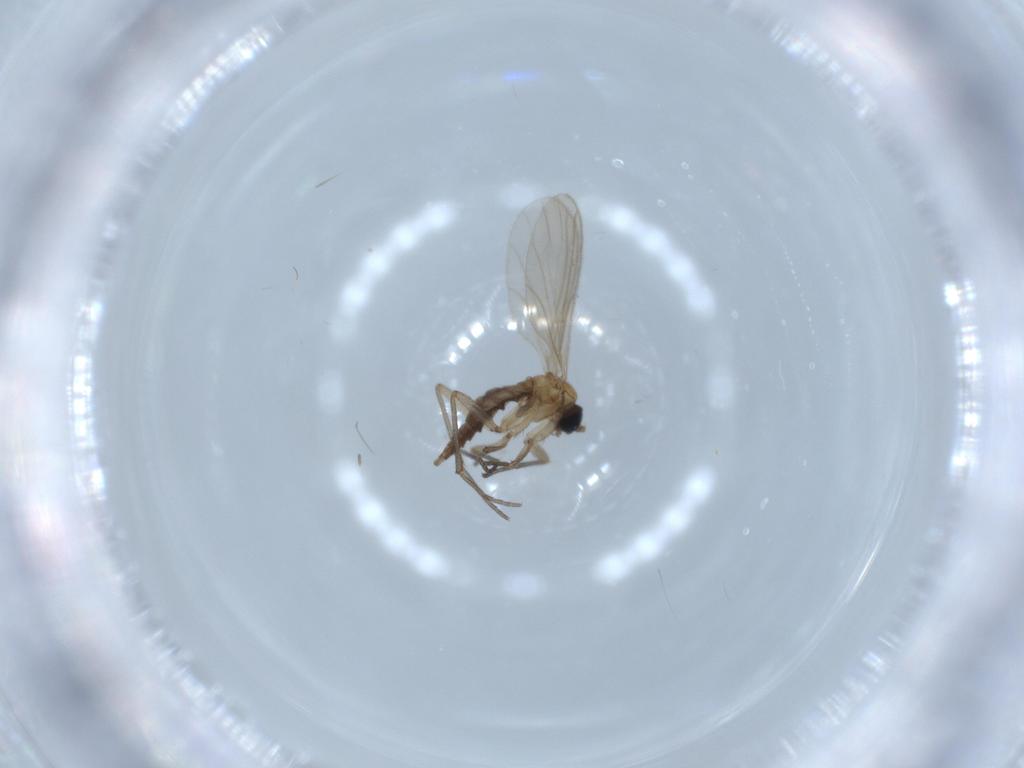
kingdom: Animalia
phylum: Arthropoda
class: Insecta
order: Diptera
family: Sciaridae
